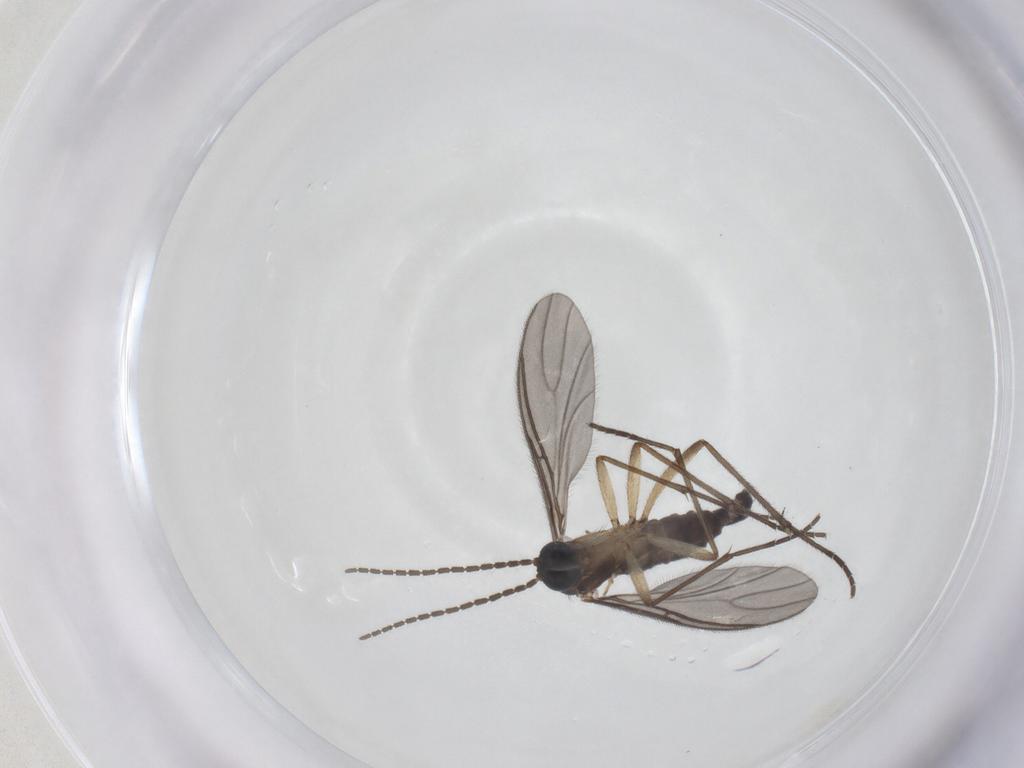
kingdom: Animalia
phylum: Arthropoda
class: Insecta
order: Diptera
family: Sciaridae
